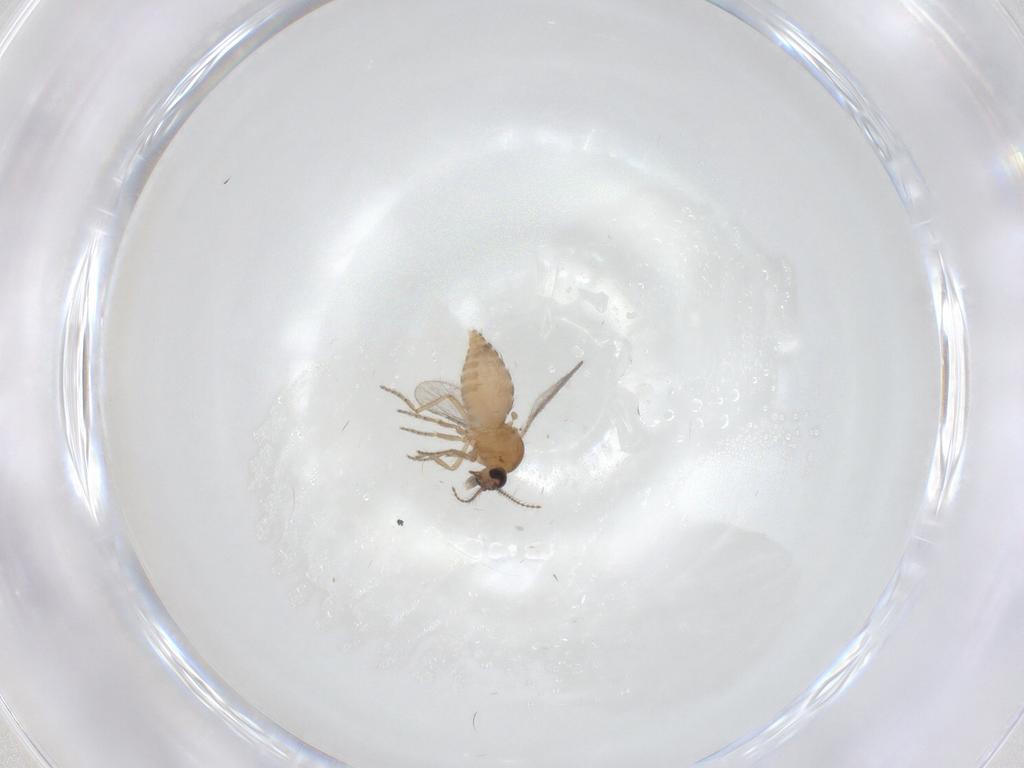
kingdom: Animalia
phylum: Arthropoda
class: Insecta
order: Diptera
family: Ceratopogonidae
